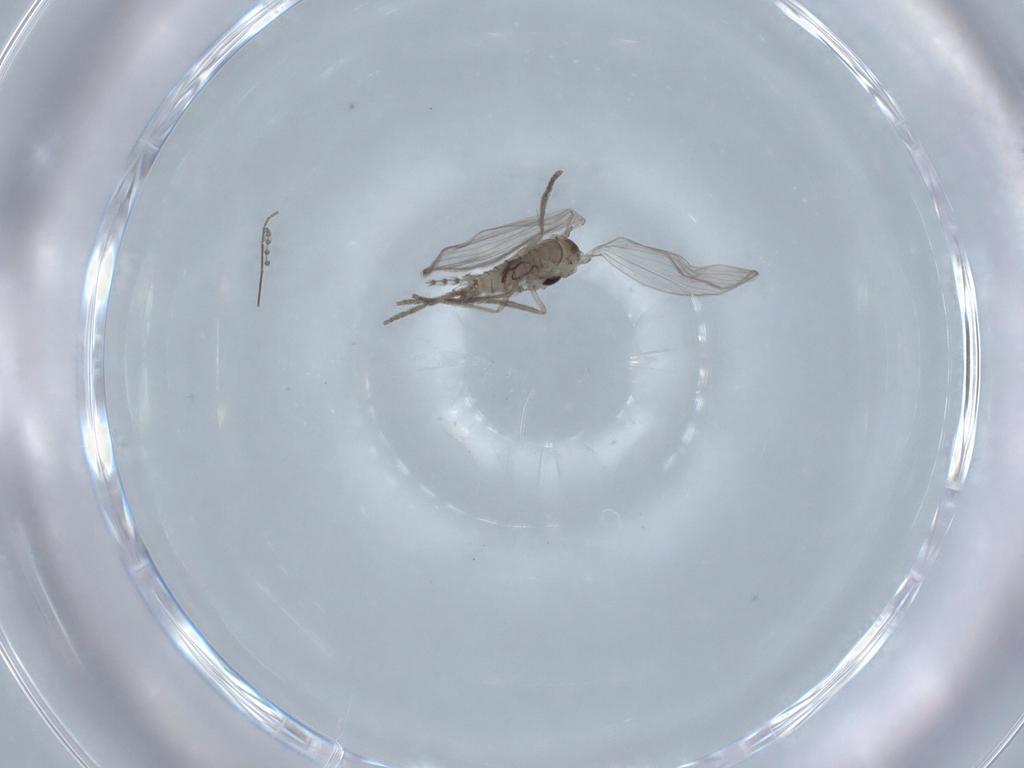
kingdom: Animalia
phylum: Arthropoda
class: Insecta
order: Diptera
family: Psychodidae
